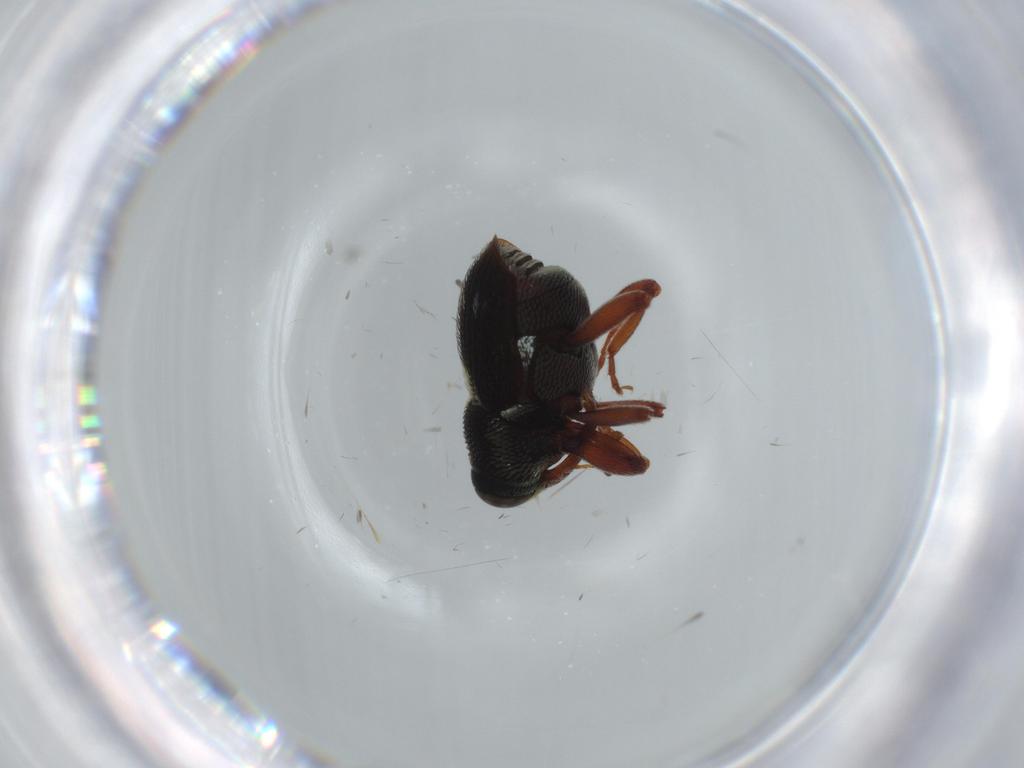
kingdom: Animalia
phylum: Arthropoda
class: Insecta
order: Coleoptera
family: Curculionidae
